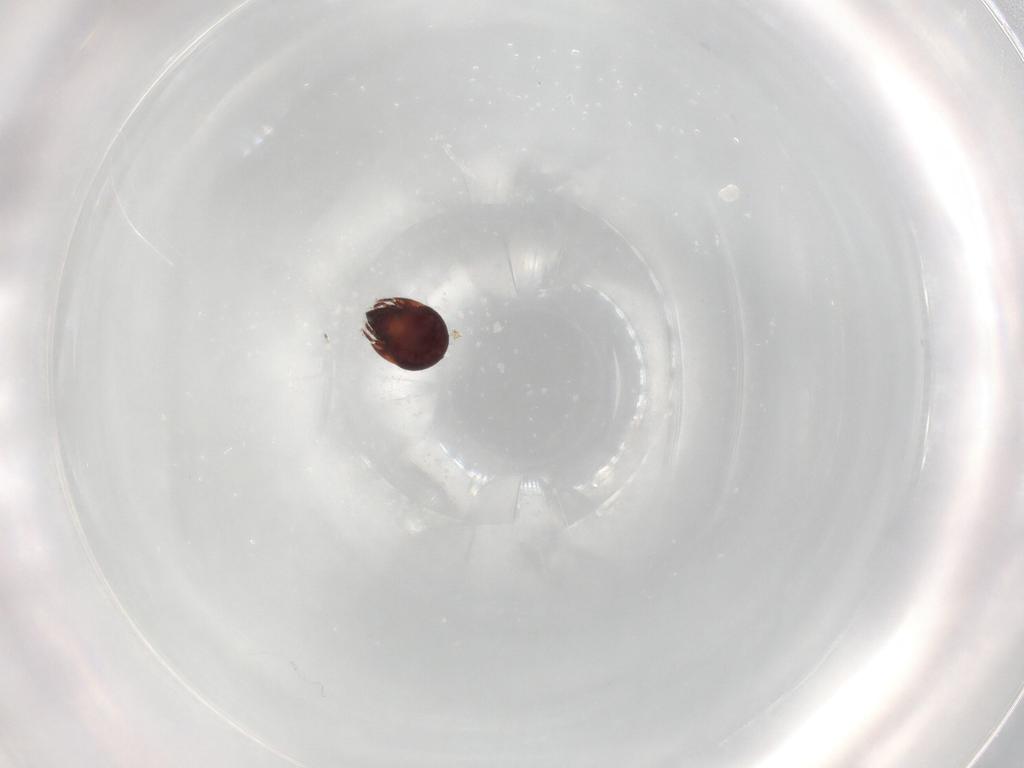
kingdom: Animalia
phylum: Arthropoda
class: Arachnida
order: Sarcoptiformes
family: Humerobatidae
